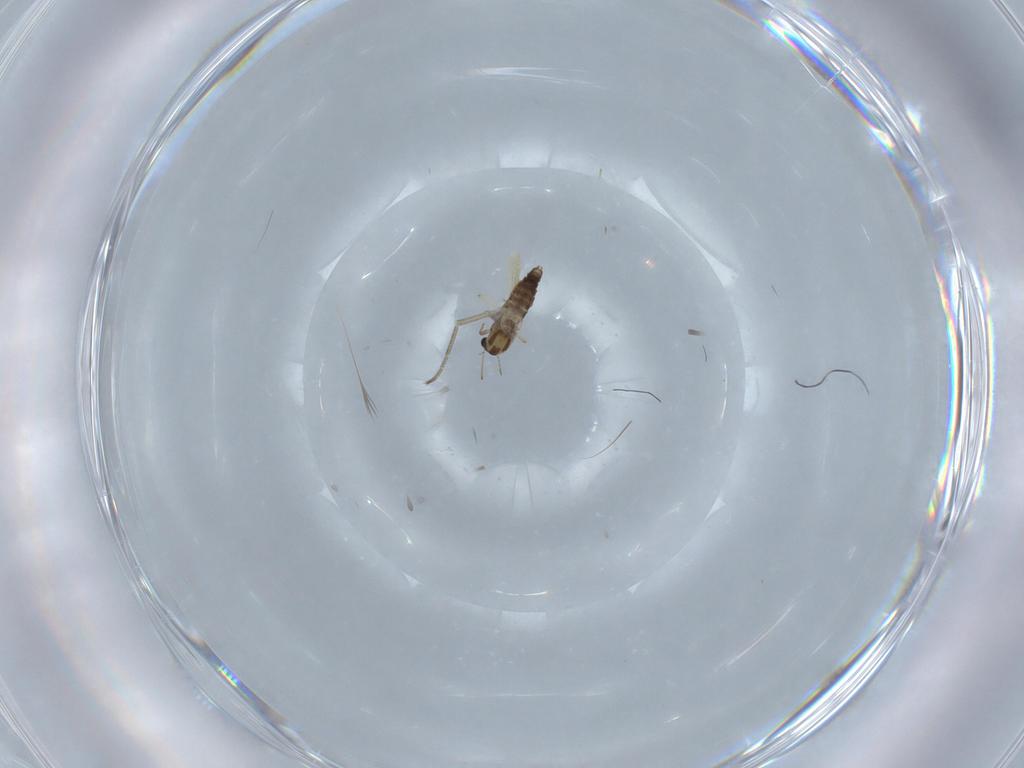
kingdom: Animalia
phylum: Arthropoda
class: Insecta
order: Diptera
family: Chironomidae
